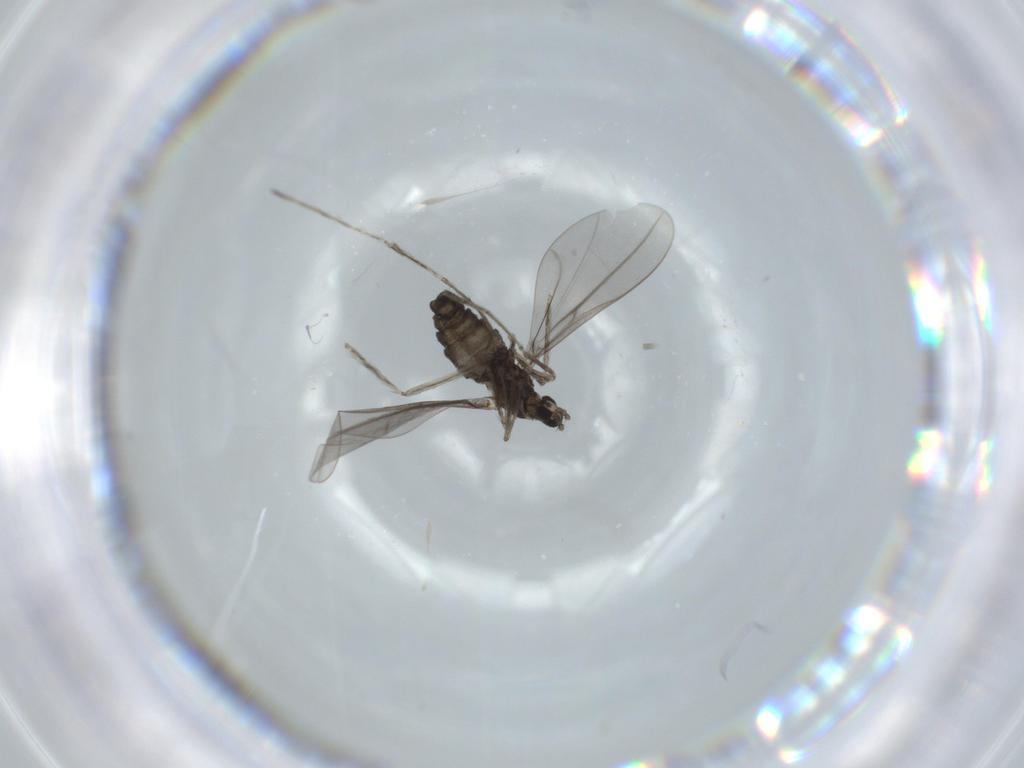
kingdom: Animalia
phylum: Arthropoda
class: Insecta
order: Diptera
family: Cecidomyiidae
